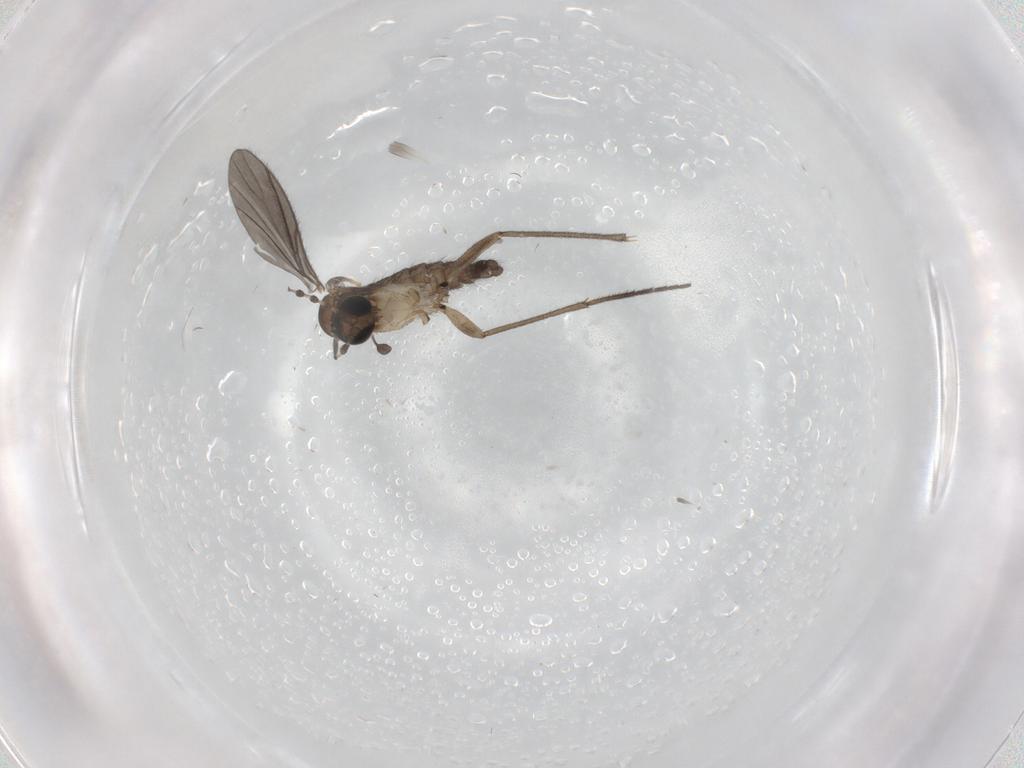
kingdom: Animalia
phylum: Arthropoda
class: Insecta
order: Diptera
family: Sciaridae
